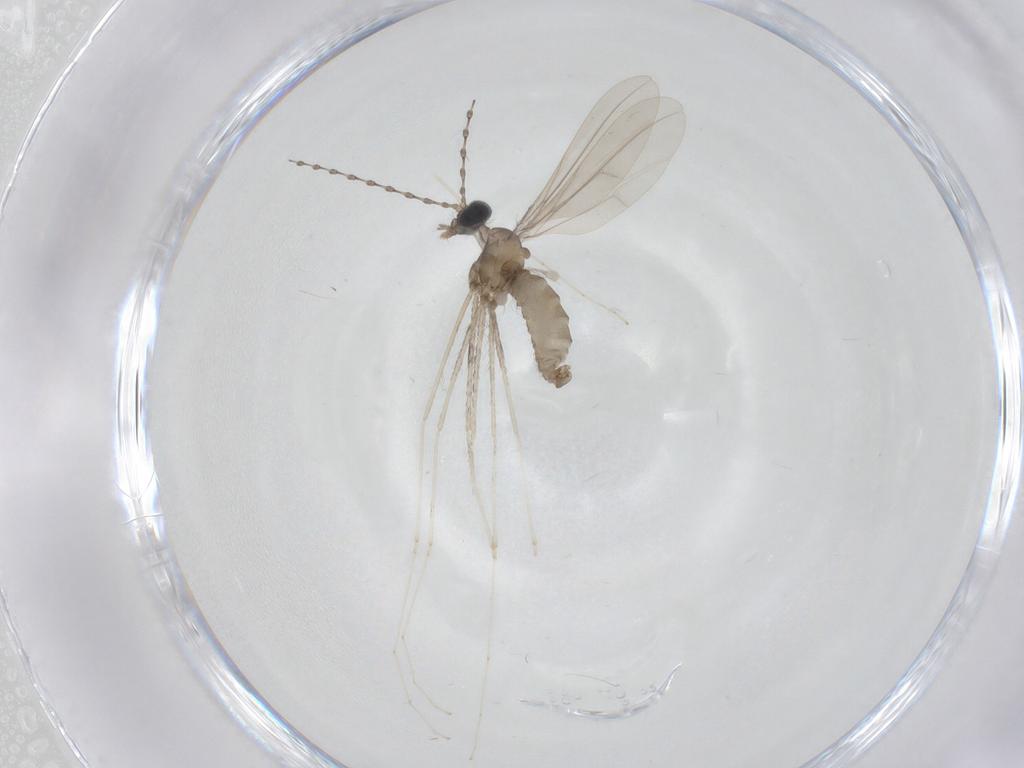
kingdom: Animalia
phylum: Arthropoda
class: Insecta
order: Diptera
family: Cecidomyiidae
